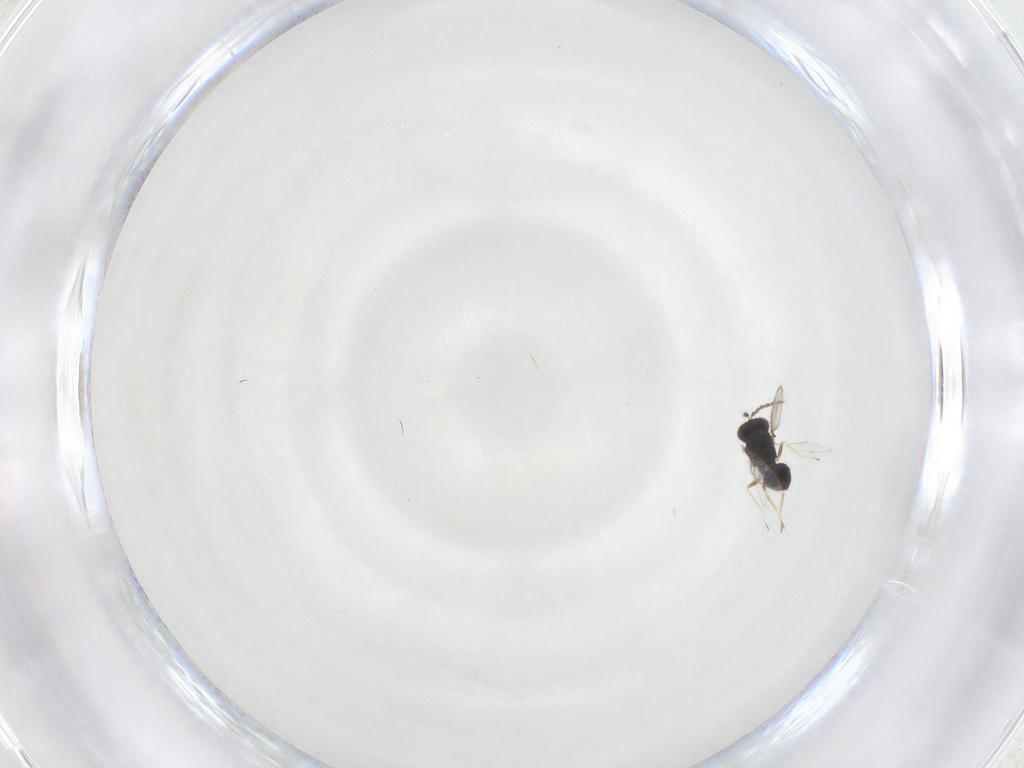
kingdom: Animalia
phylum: Arthropoda
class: Insecta
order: Hymenoptera
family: Eulophidae
